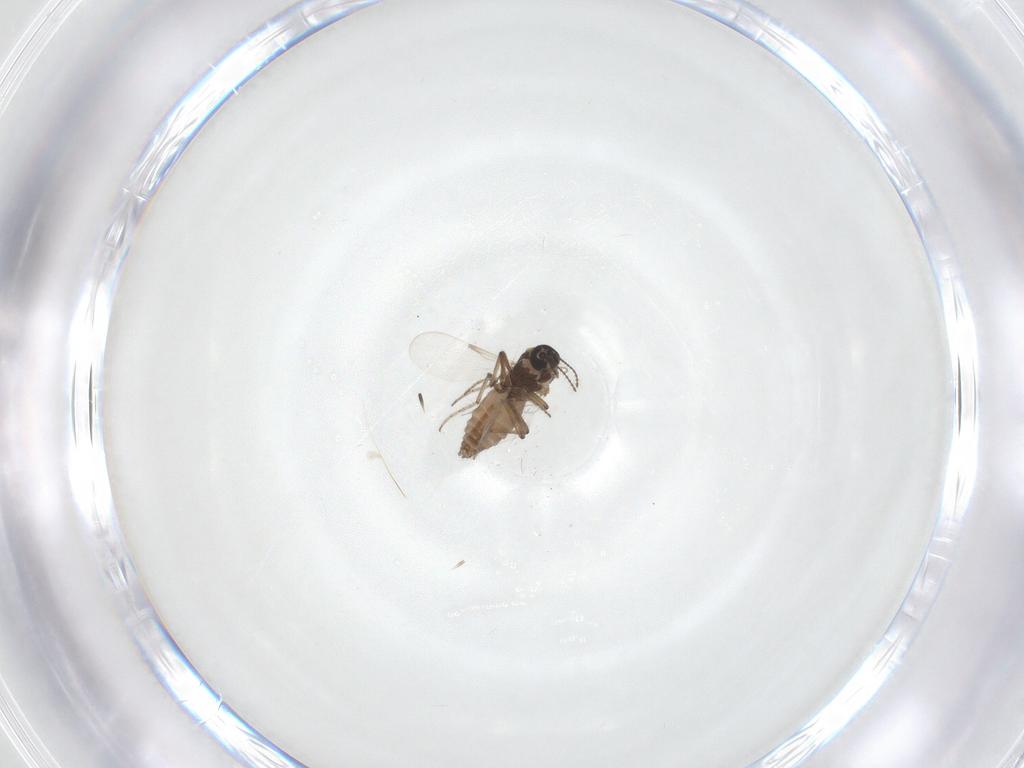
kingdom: Animalia
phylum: Arthropoda
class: Insecta
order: Diptera
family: Ceratopogonidae
